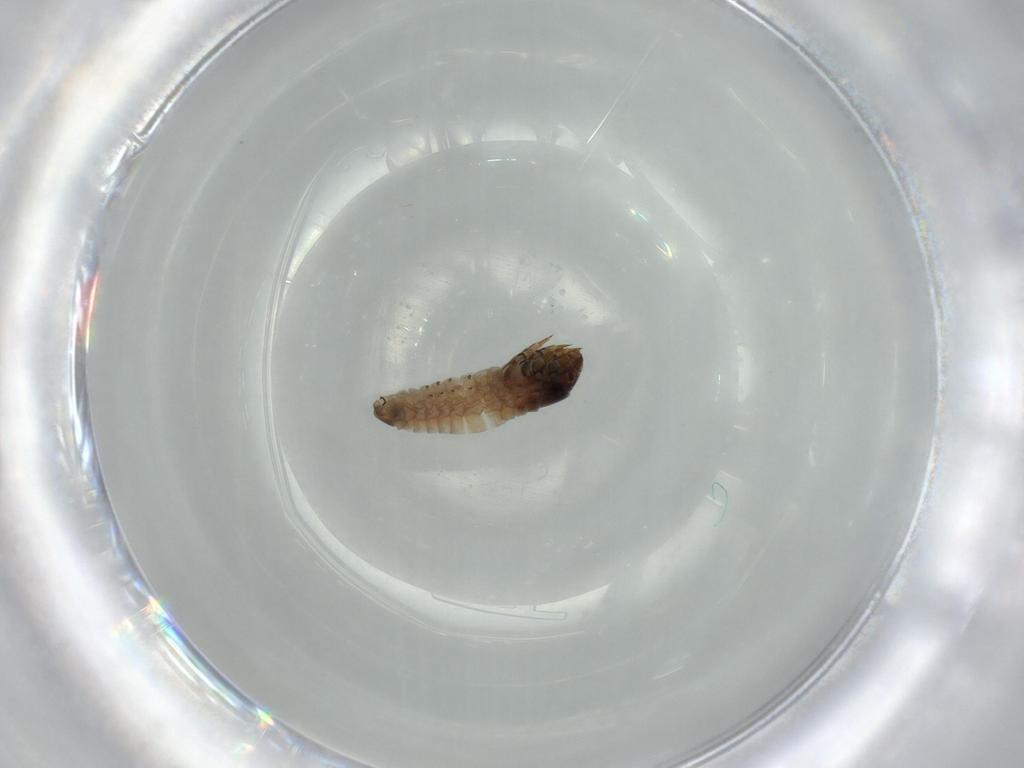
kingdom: Animalia
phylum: Arthropoda
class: Insecta
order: Lepidoptera
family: Psychidae
